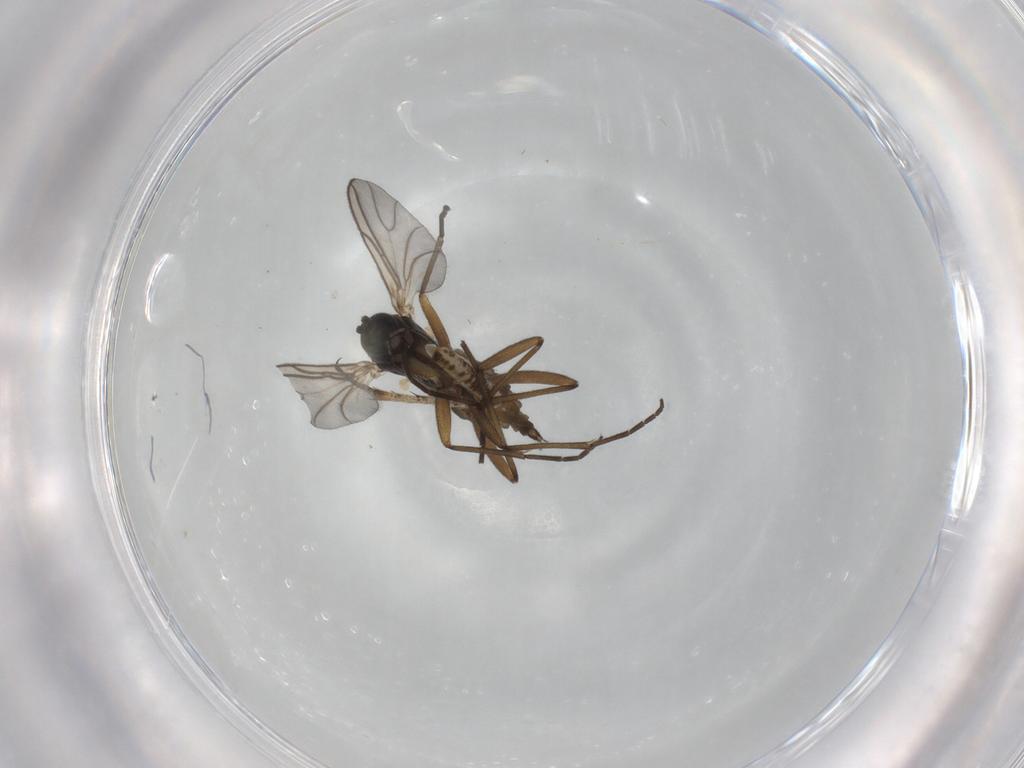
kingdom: Animalia
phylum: Arthropoda
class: Insecta
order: Diptera
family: Sciaridae
